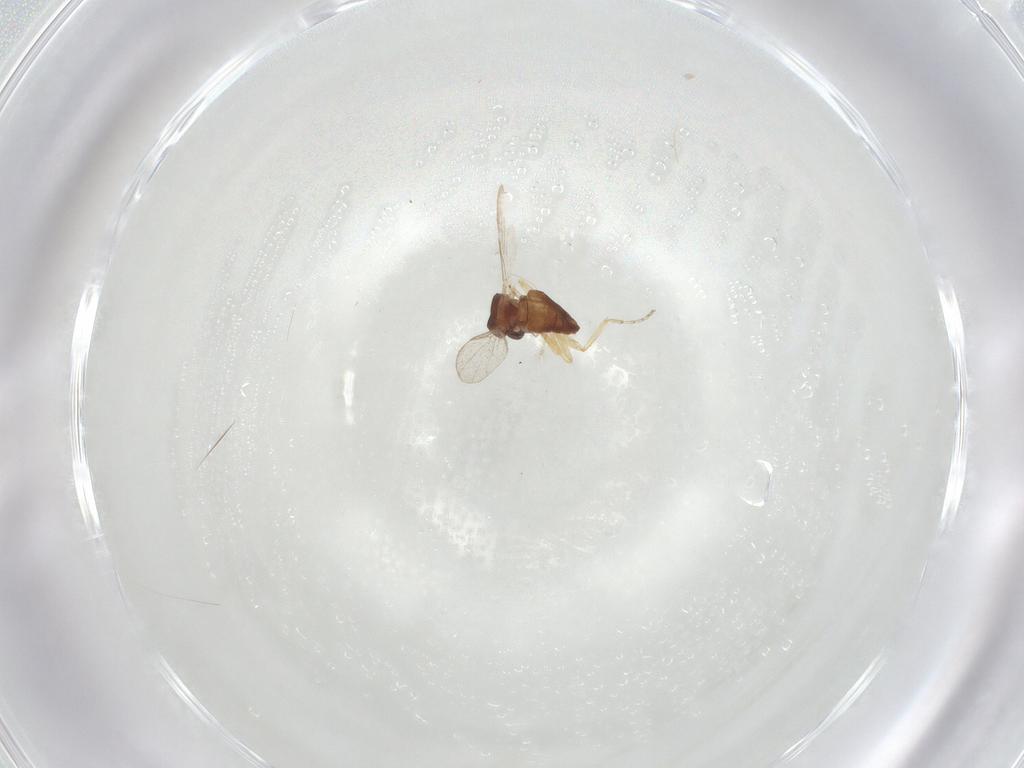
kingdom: Animalia
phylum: Arthropoda
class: Insecta
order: Diptera
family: Ceratopogonidae
